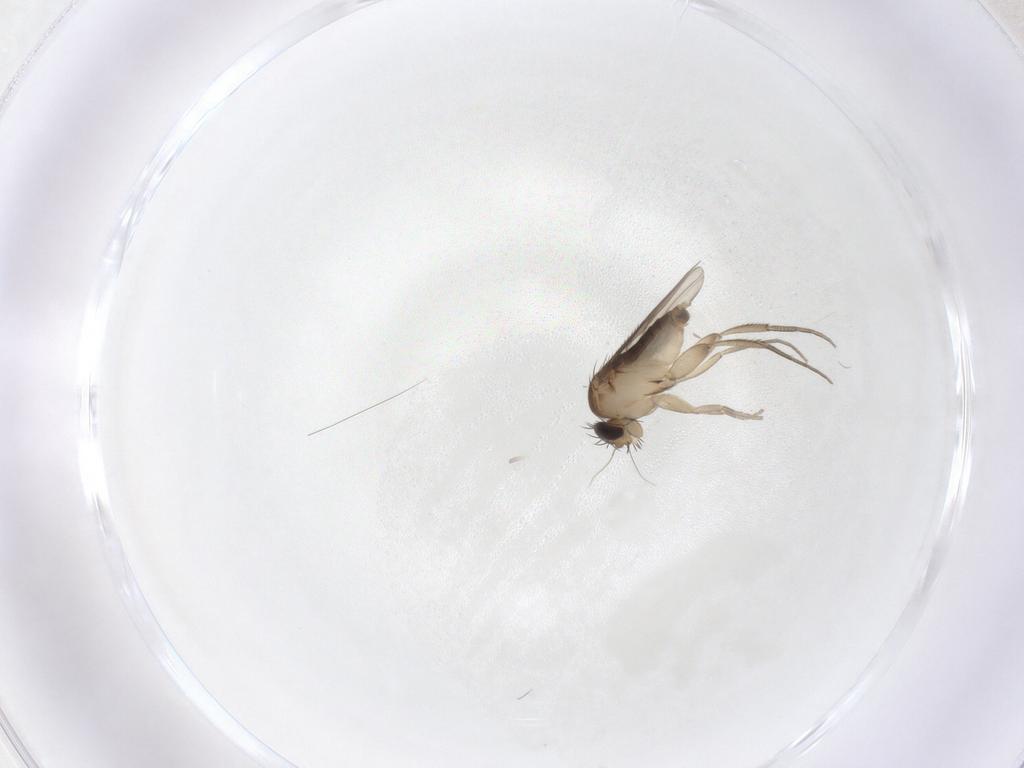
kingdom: Animalia
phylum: Arthropoda
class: Insecta
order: Diptera
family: Phoridae
